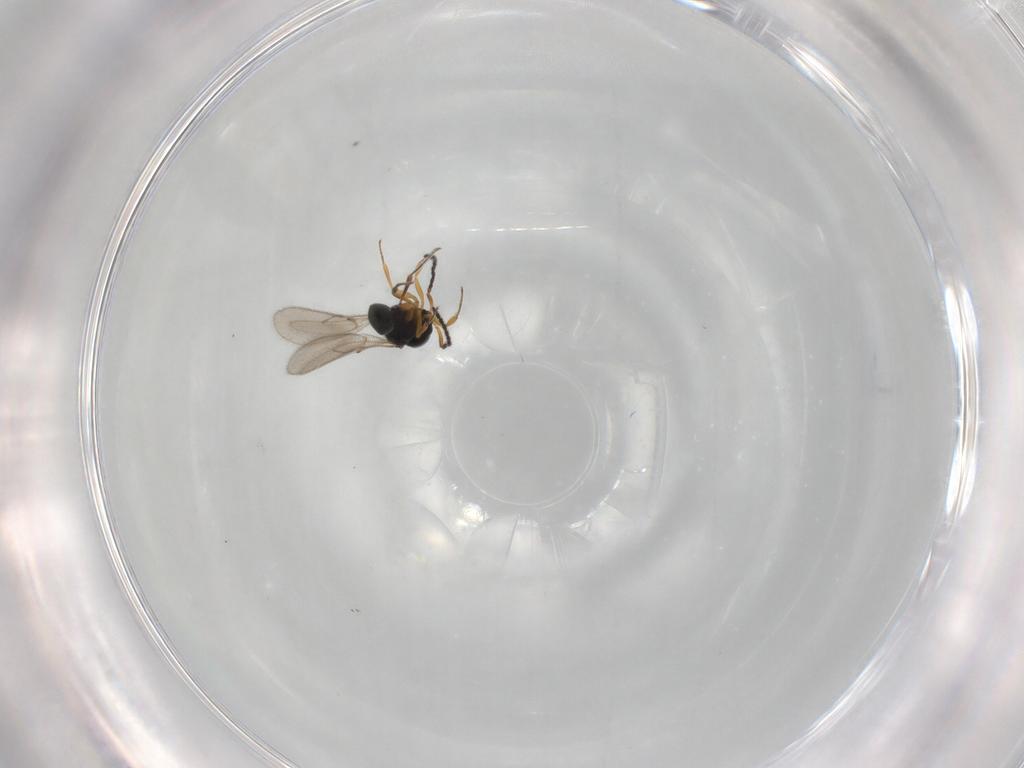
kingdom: Animalia
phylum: Arthropoda
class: Insecta
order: Hymenoptera
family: Scelionidae
